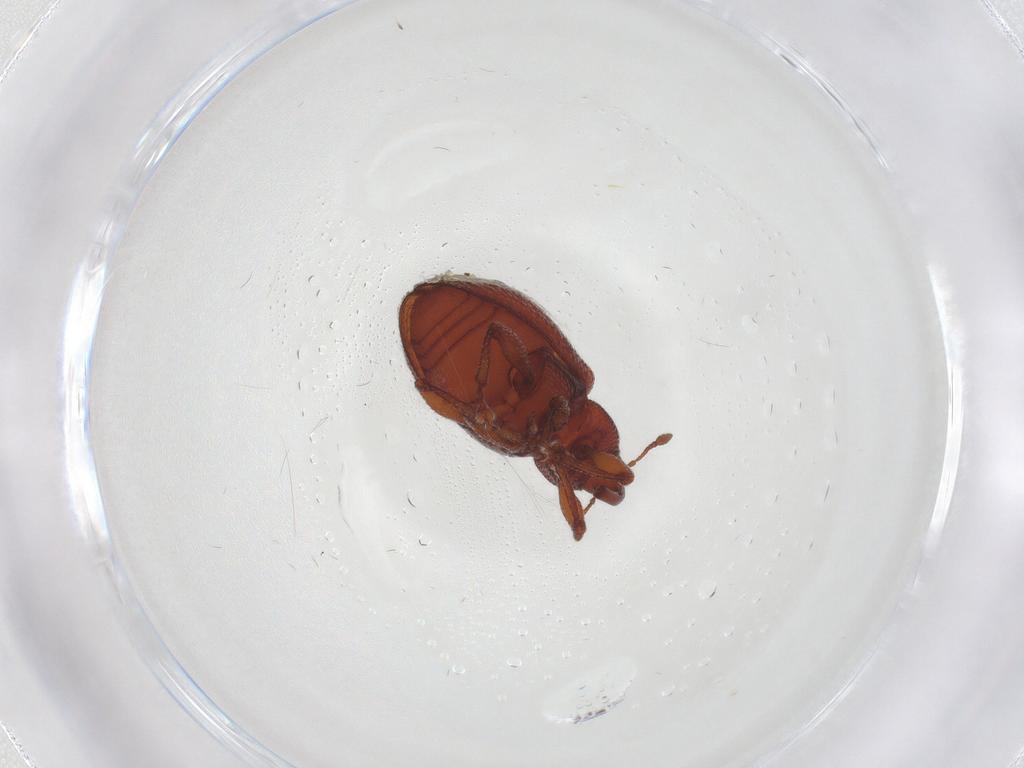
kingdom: Animalia
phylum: Arthropoda
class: Insecta
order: Coleoptera
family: Curculionidae
